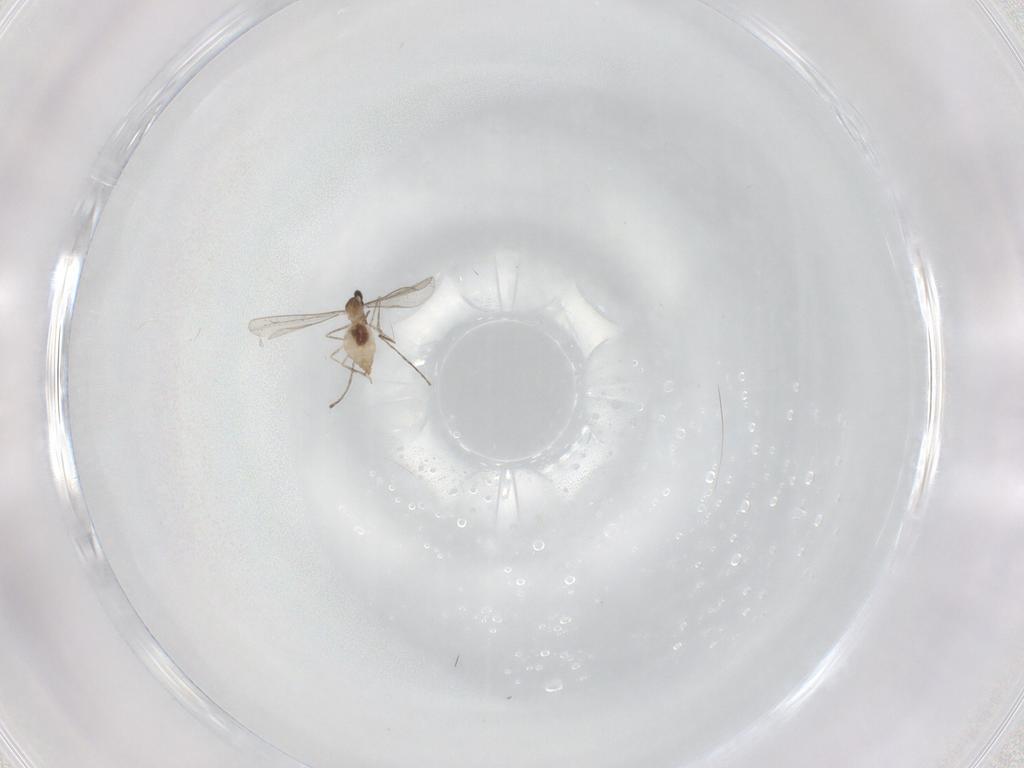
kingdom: Animalia
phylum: Arthropoda
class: Insecta
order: Diptera
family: Cecidomyiidae
